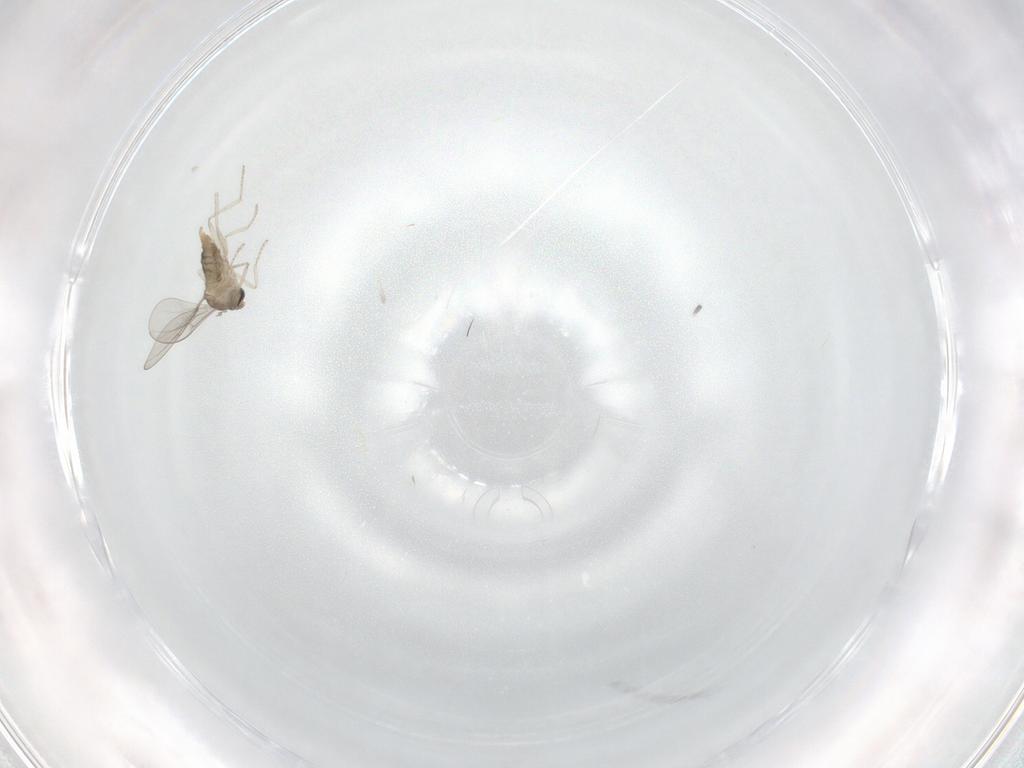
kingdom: Animalia
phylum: Arthropoda
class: Insecta
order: Diptera
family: Cecidomyiidae
